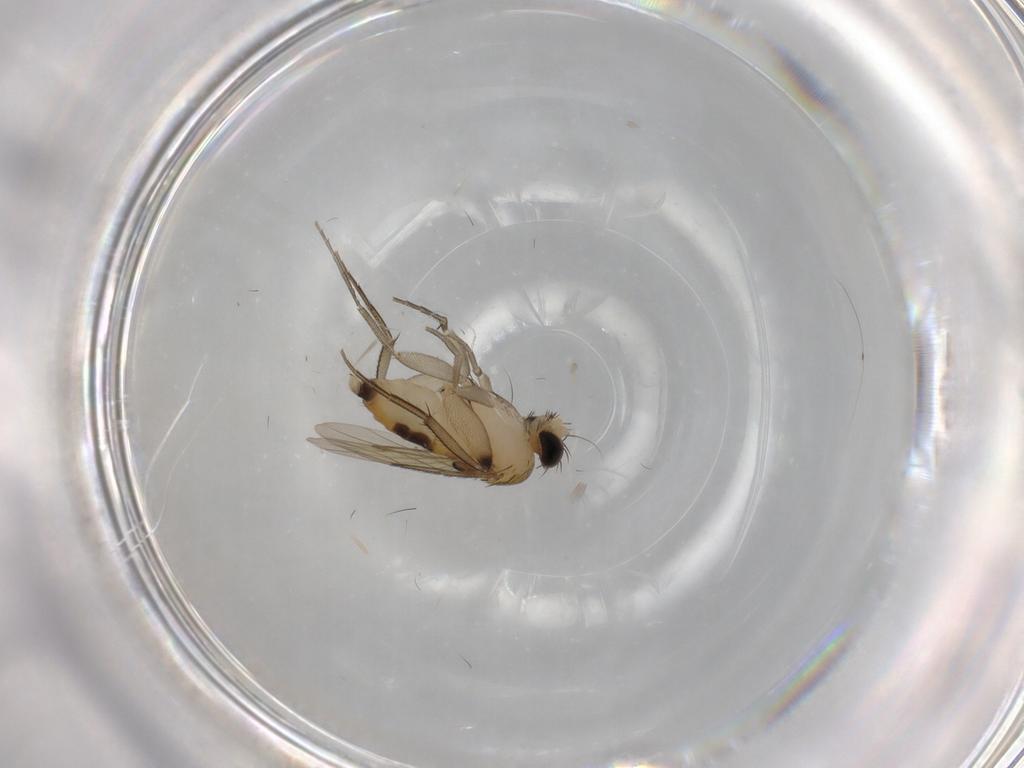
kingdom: Animalia
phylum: Arthropoda
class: Insecta
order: Diptera
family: Phoridae
